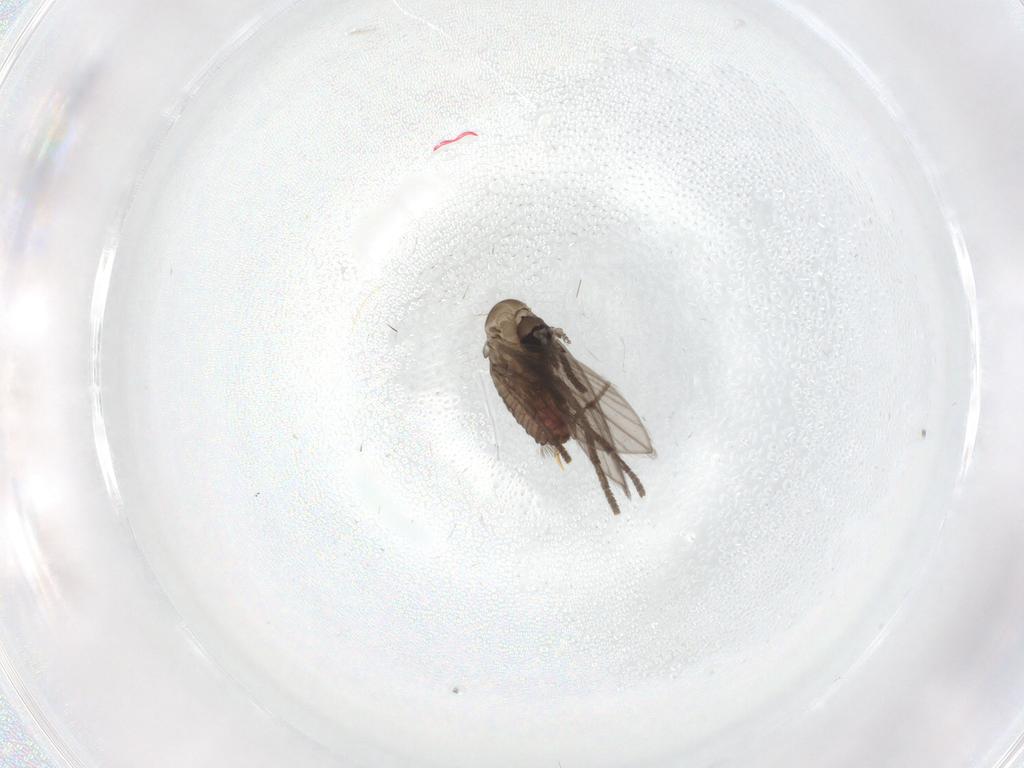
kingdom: Animalia
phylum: Arthropoda
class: Insecta
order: Diptera
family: Psychodidae
